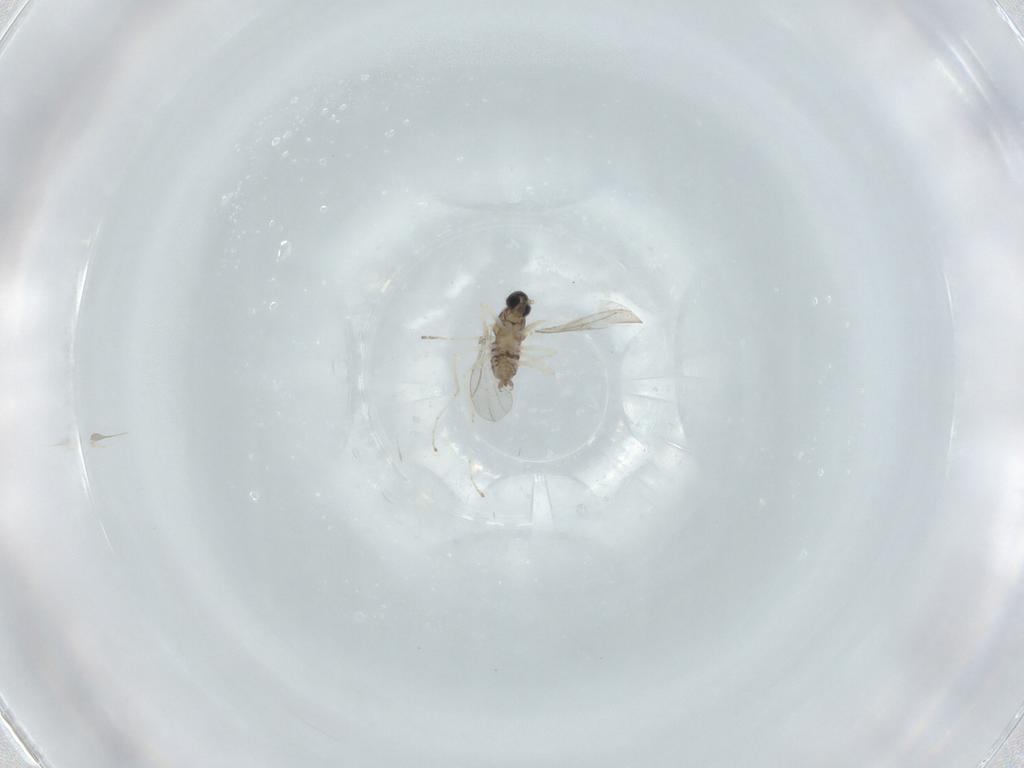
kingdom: Animalia
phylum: Arthropoda
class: Insecta
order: Diptera
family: Xylomyidae
